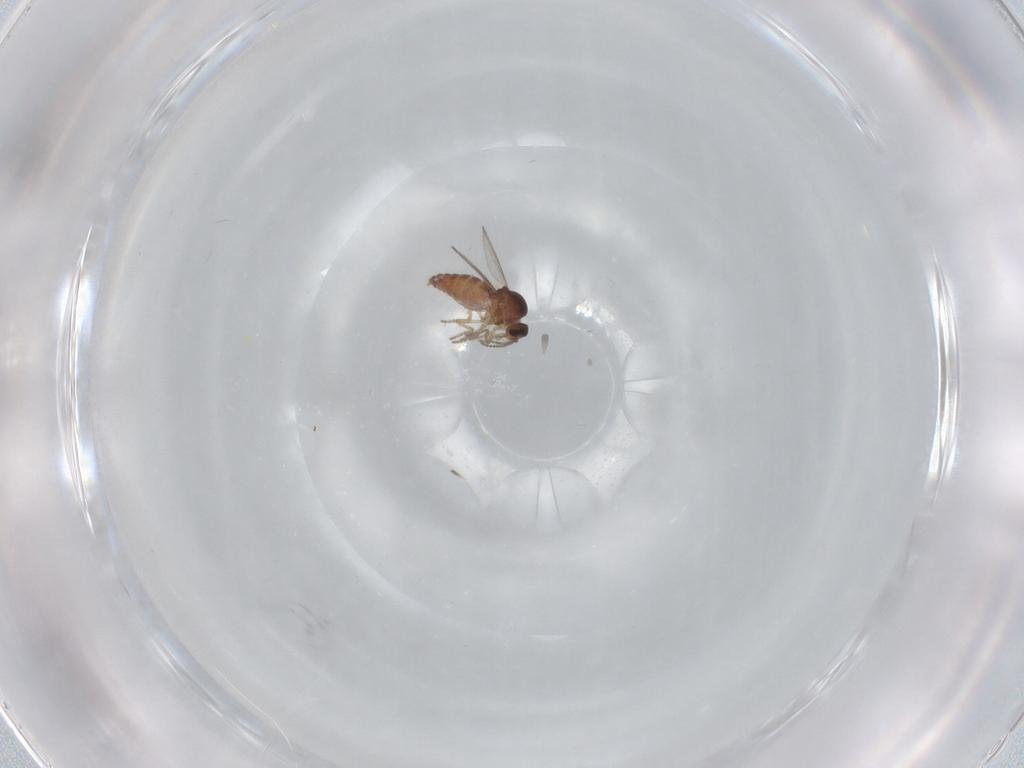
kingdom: Animalia
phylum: Arthropoda
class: Insecta
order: Diptera
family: Ceratopogonidae
